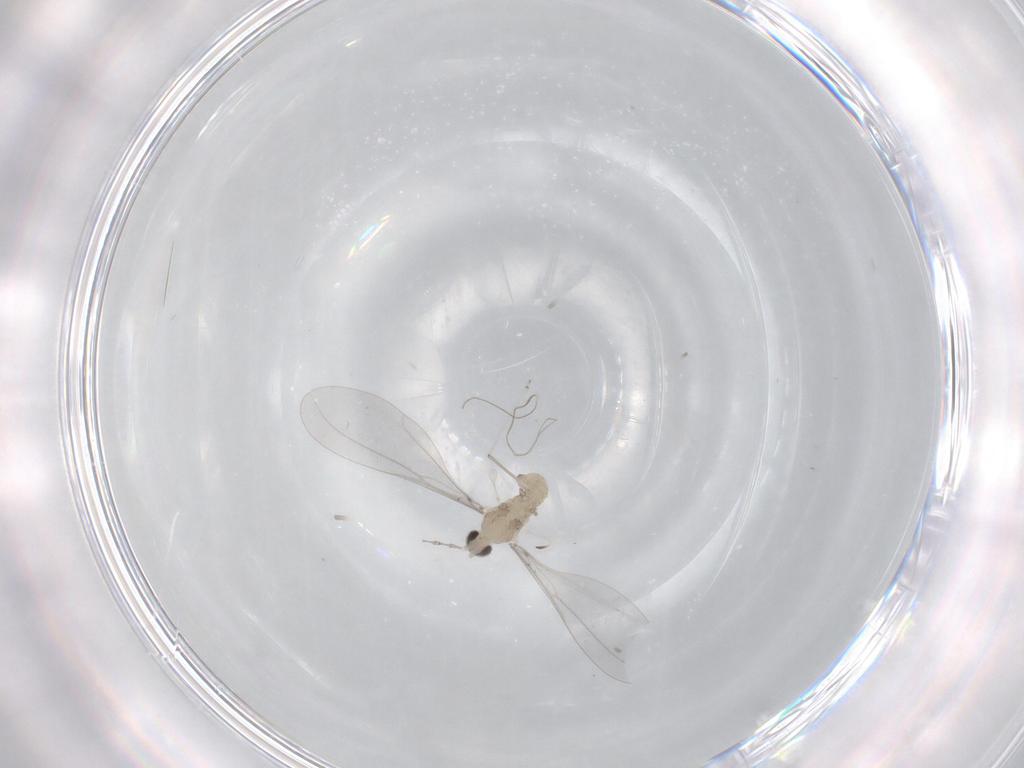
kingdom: Animalia
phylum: Arthropoda
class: Insecta
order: Diptera
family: Cecidomyiidae
